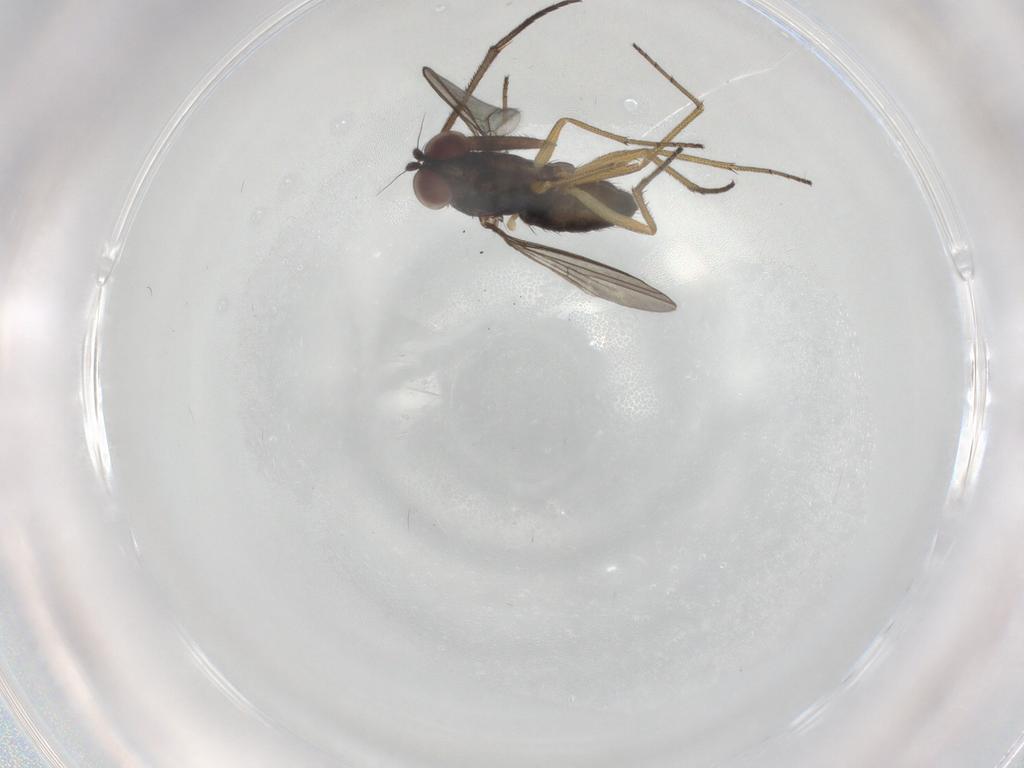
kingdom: Animalia
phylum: Arthropoda
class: Insecta
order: Diptera
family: Dolichopodidae
